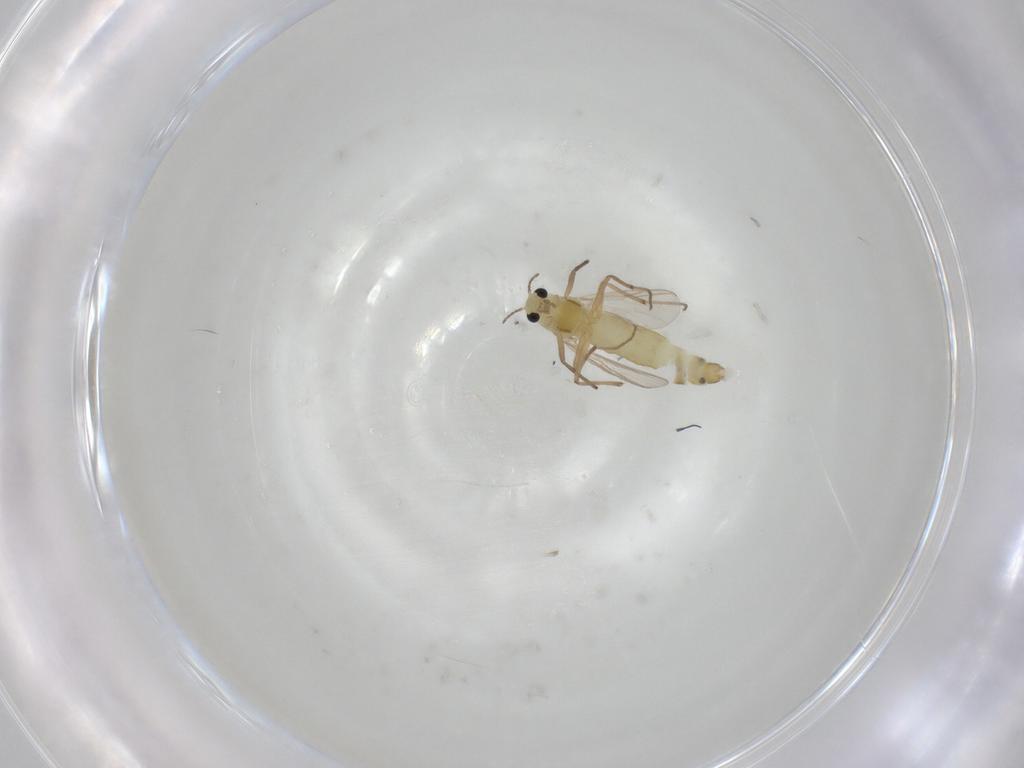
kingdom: Animalia
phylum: Arthropoda
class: Insecta
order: Diptera
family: Chironomidae
